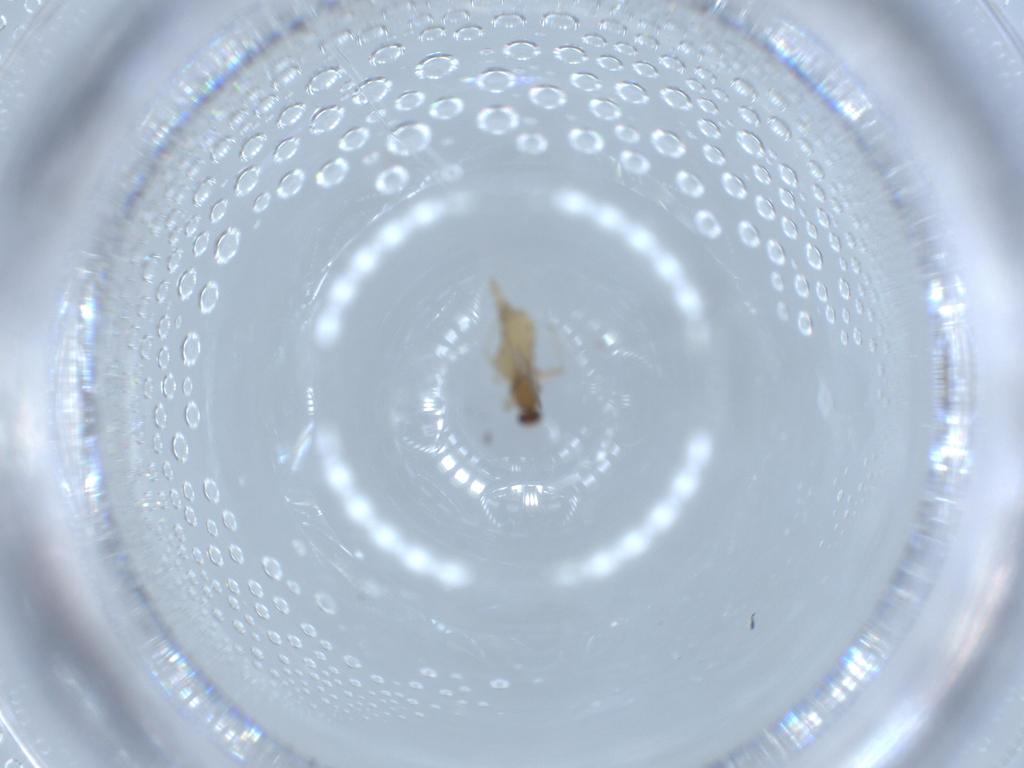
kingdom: Animalia
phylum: Arthropoda
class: Insecta
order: Diptera
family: Cecidomyiidae
